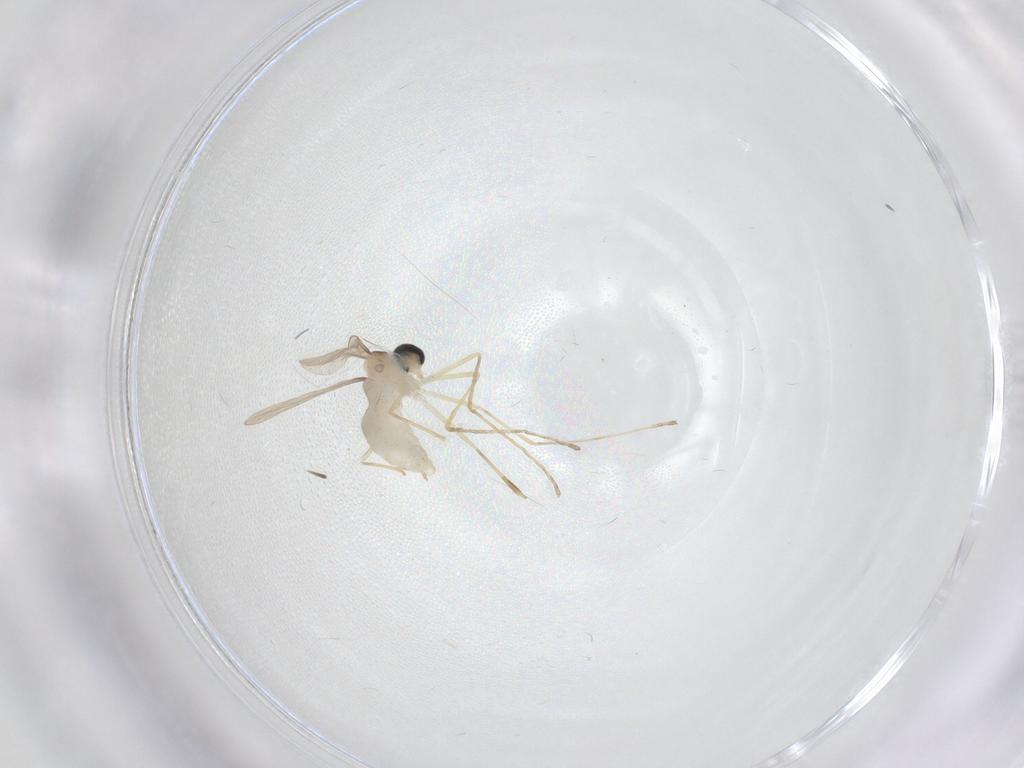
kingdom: Animalia
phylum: Arthropoda
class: Insecta
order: Diptera
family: Cecidomyiidae
